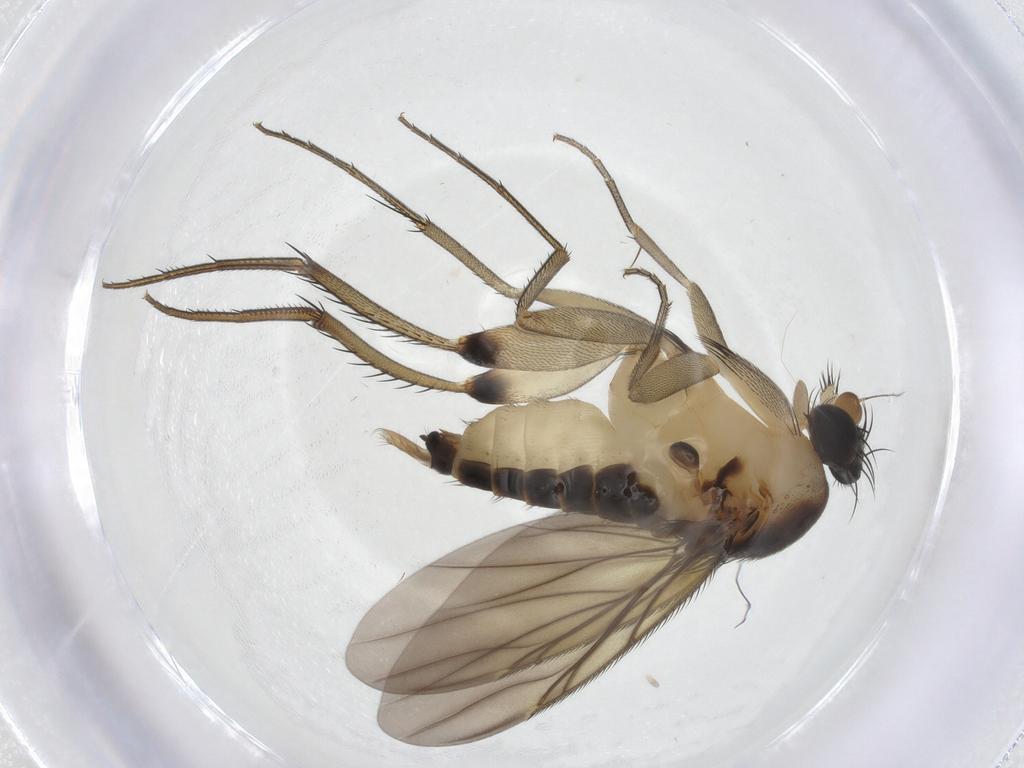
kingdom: Animalia
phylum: Arthropoda
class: Insecta
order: Diptera
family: Phoridae
